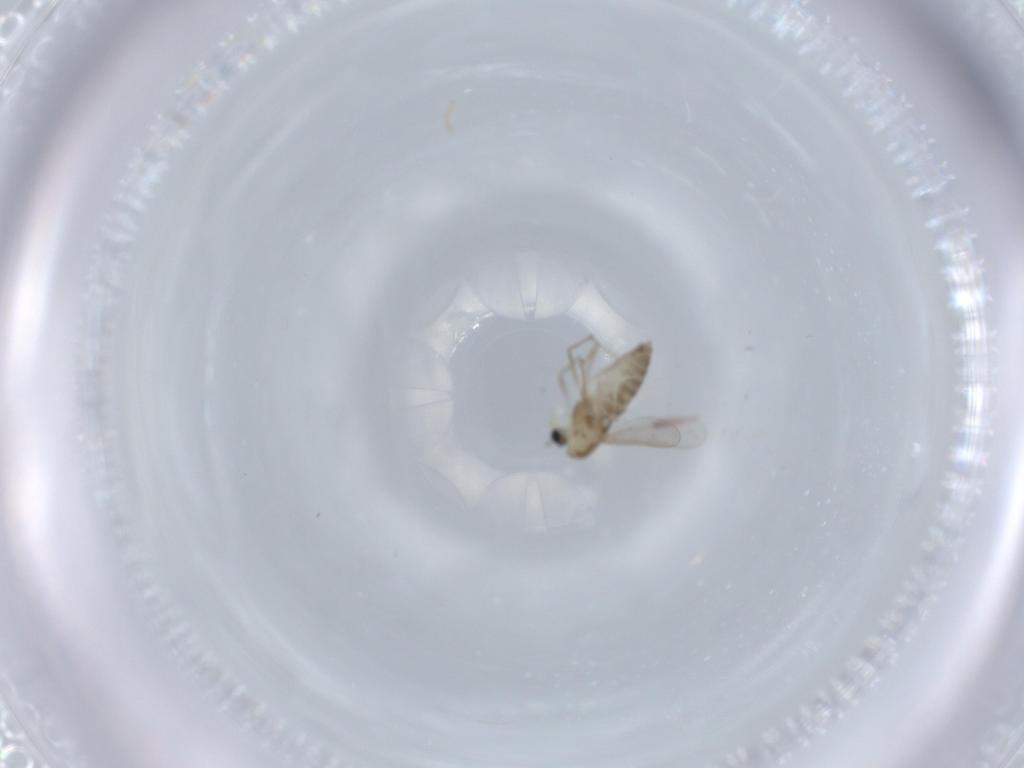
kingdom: Animalia
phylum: Arthropoda
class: Insecta
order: Diptera
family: Chironomidae
